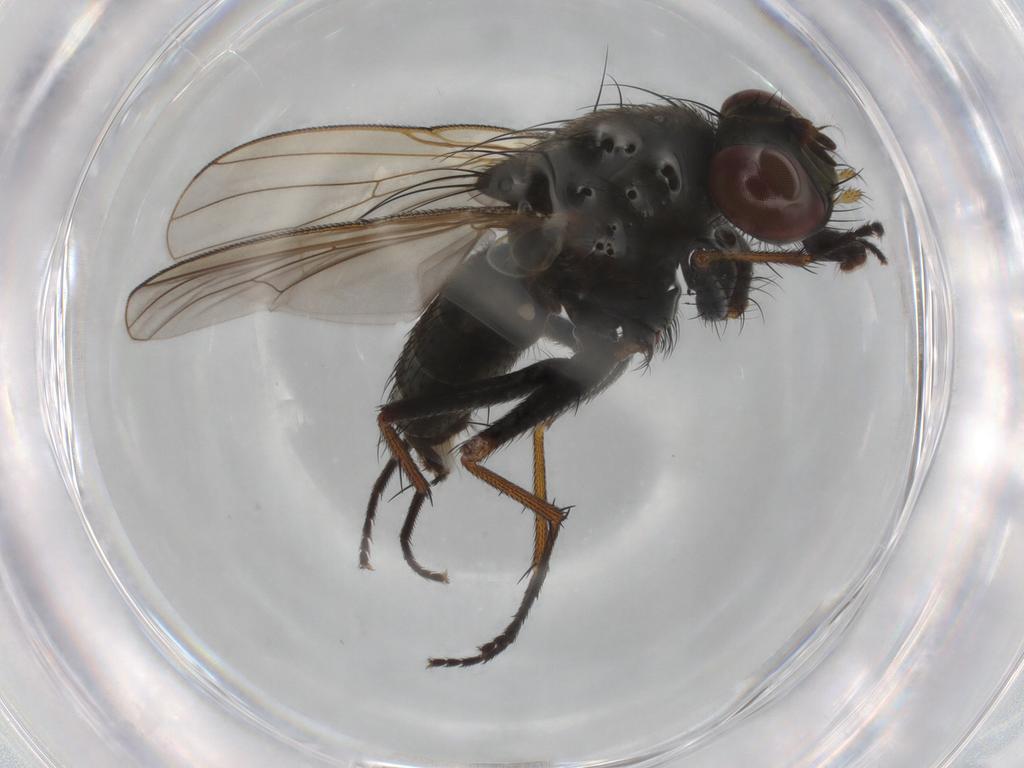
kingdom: Animalia
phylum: Arthropoda
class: Insecta
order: Diptera
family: Muscidae
